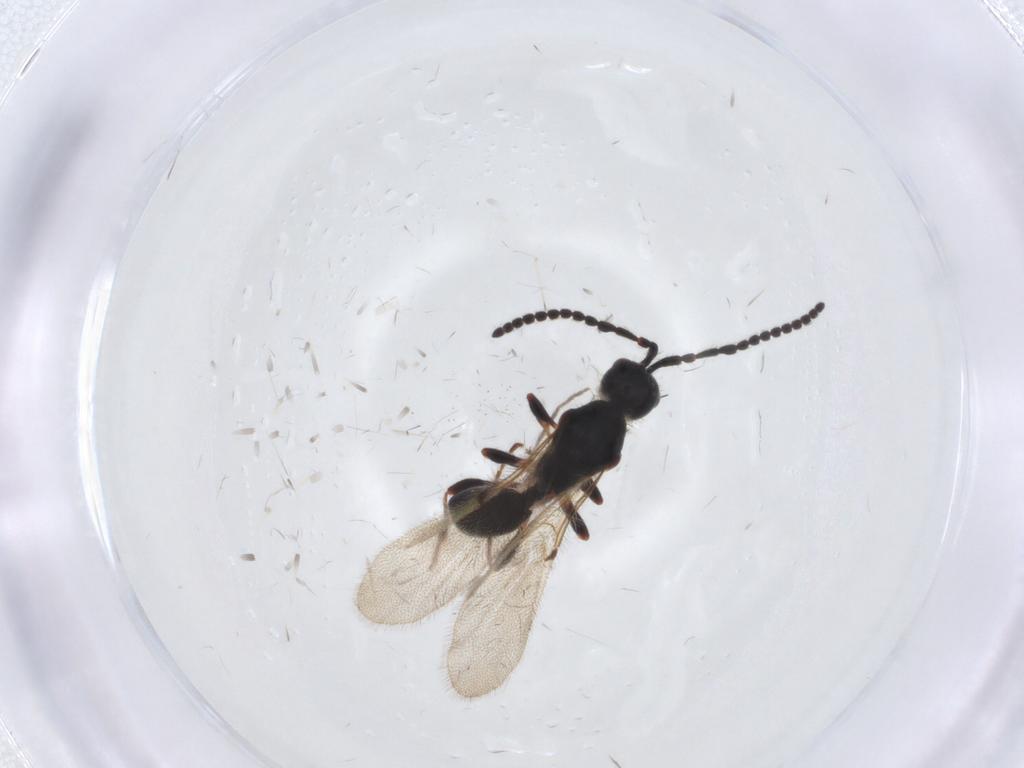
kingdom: Animalia
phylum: Arthropoda
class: Insecta
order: Hymenoptera
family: Diapriidae
